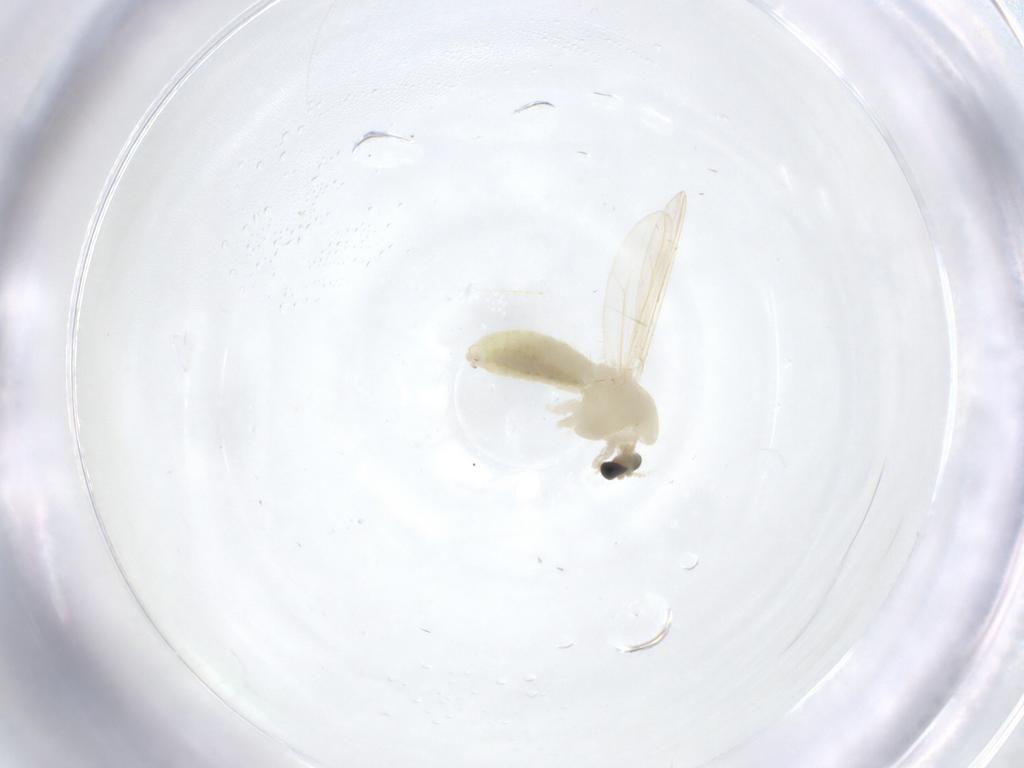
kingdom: Animalia
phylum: Arthropoda
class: Insecta
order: Diptera
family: Chironomidae
